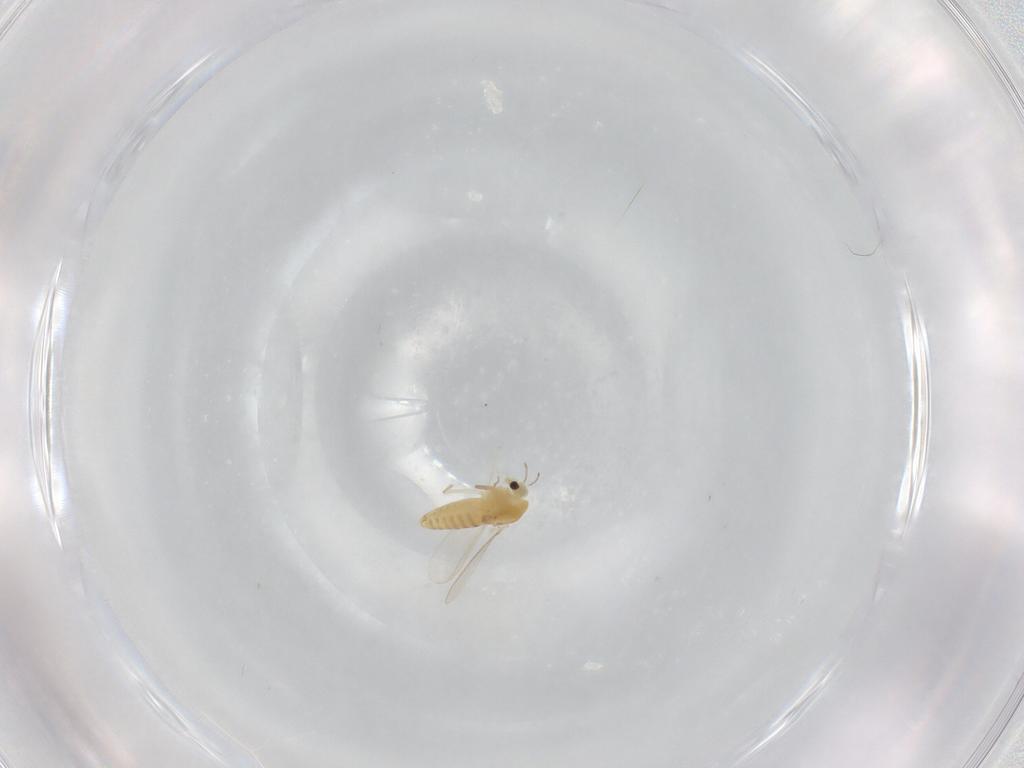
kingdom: Animalia
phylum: Arthropoda
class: Insecta
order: Diptera
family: Chironomidae
